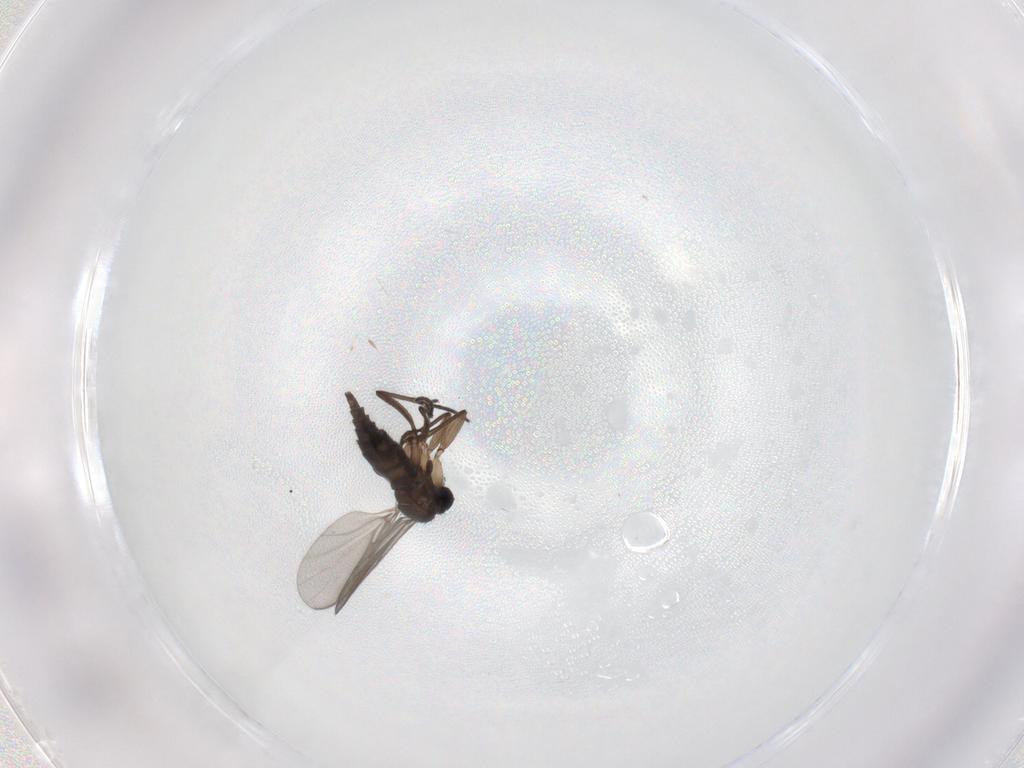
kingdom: Animalia
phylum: Arthropoda
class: Insecta
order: Diptera
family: Sciaridae
